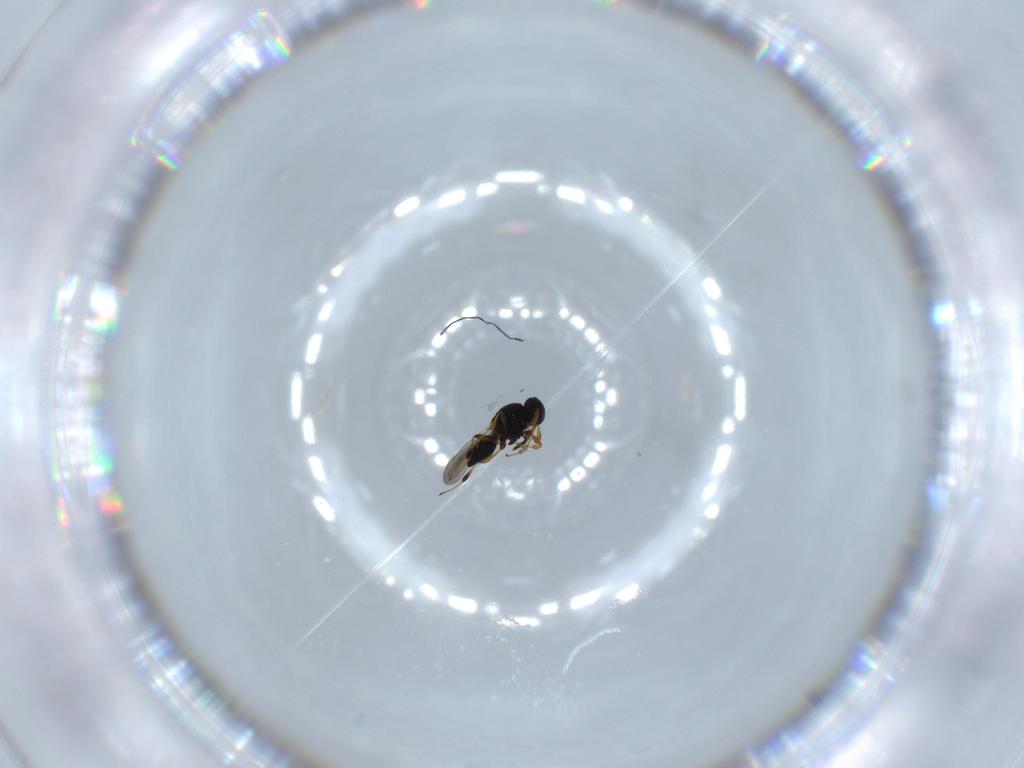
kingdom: Animalia
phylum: Arthropoda
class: Insecta
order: Hymenoptera
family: Platygastridae
